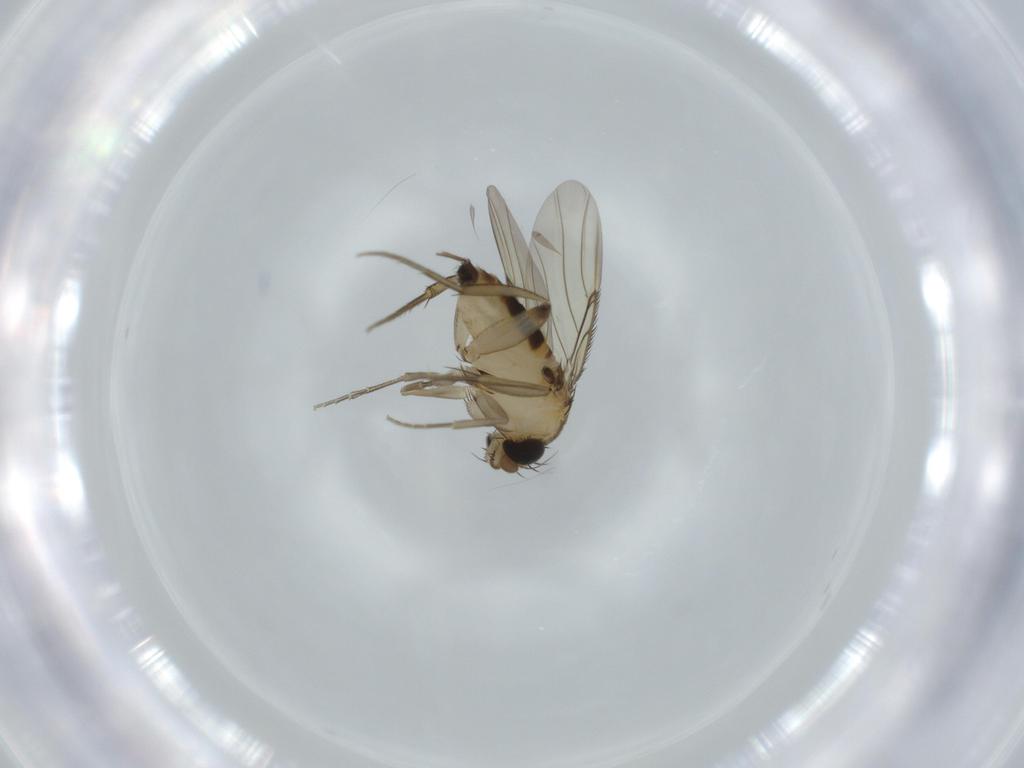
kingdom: Animalia
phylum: Arthropoda
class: Insecta
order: Diptera
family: Phoridae
